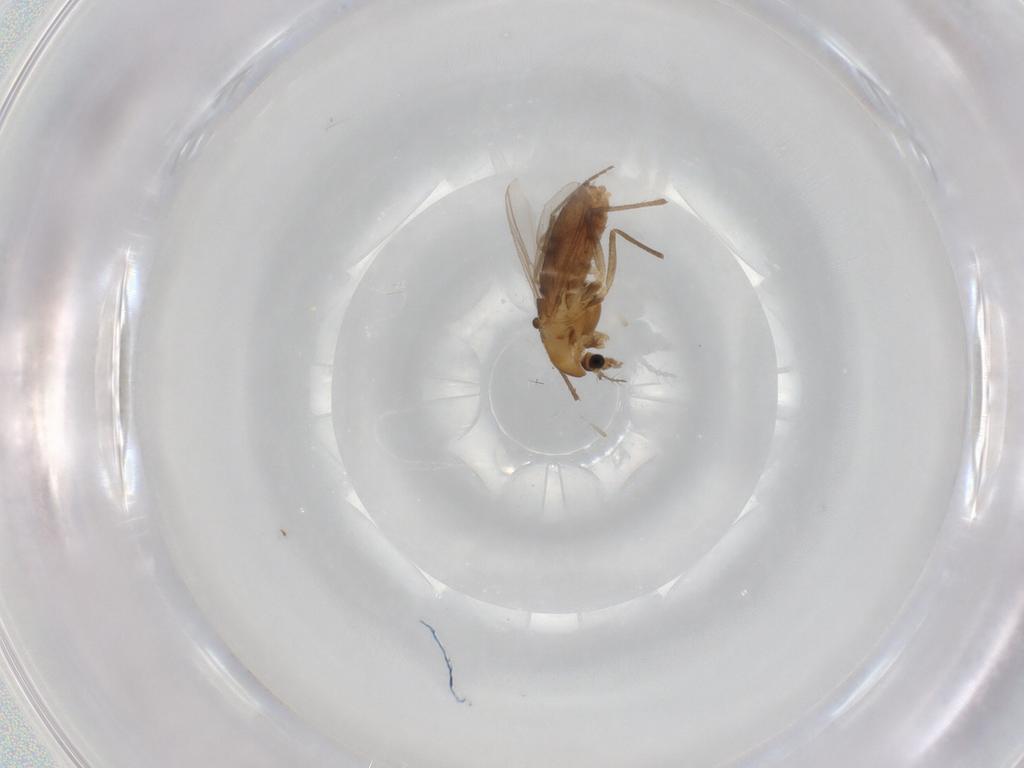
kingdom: Animalia
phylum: Arthropoda
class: Insecta
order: Diptera
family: Chironomidae
